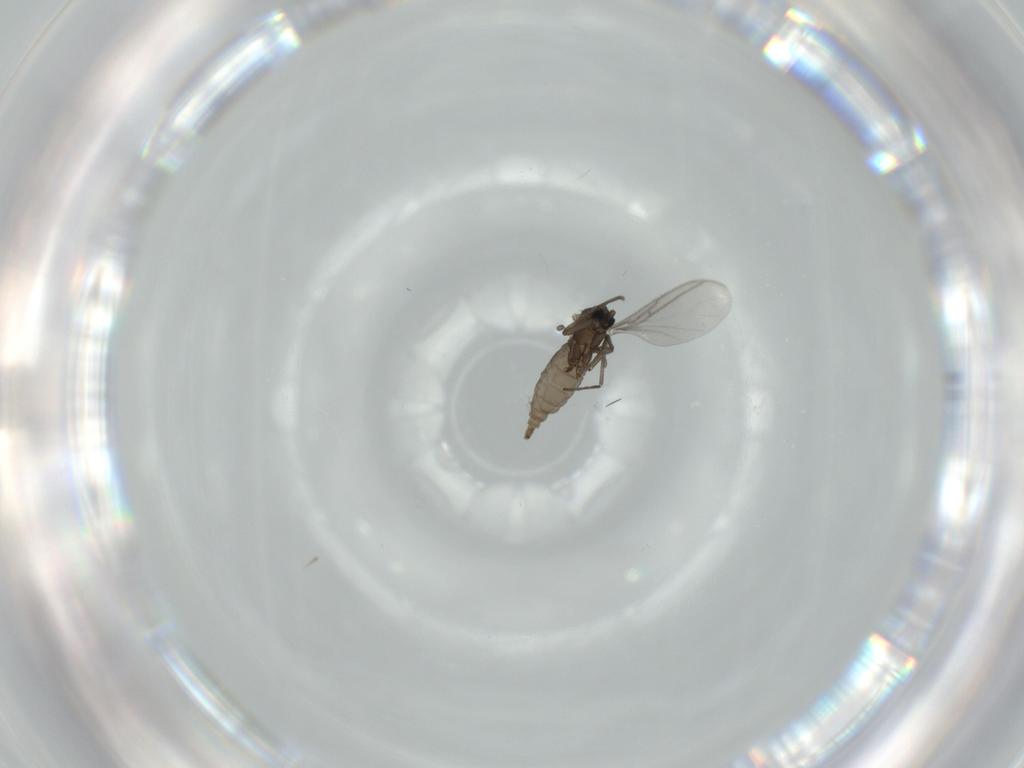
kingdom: Animalia
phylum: Arthropoda
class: Insecta
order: Diptera
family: Sciaridae
